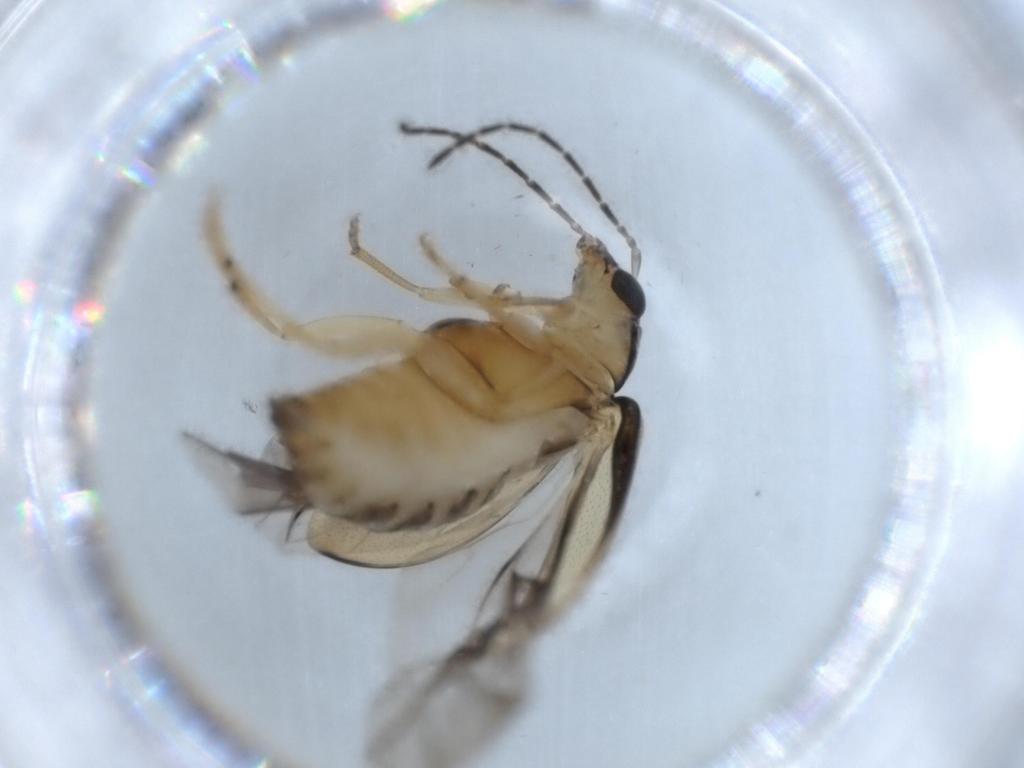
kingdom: Animalia
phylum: Arthropoda
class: Insecta
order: Coleoptera
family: Chrysomelidae
